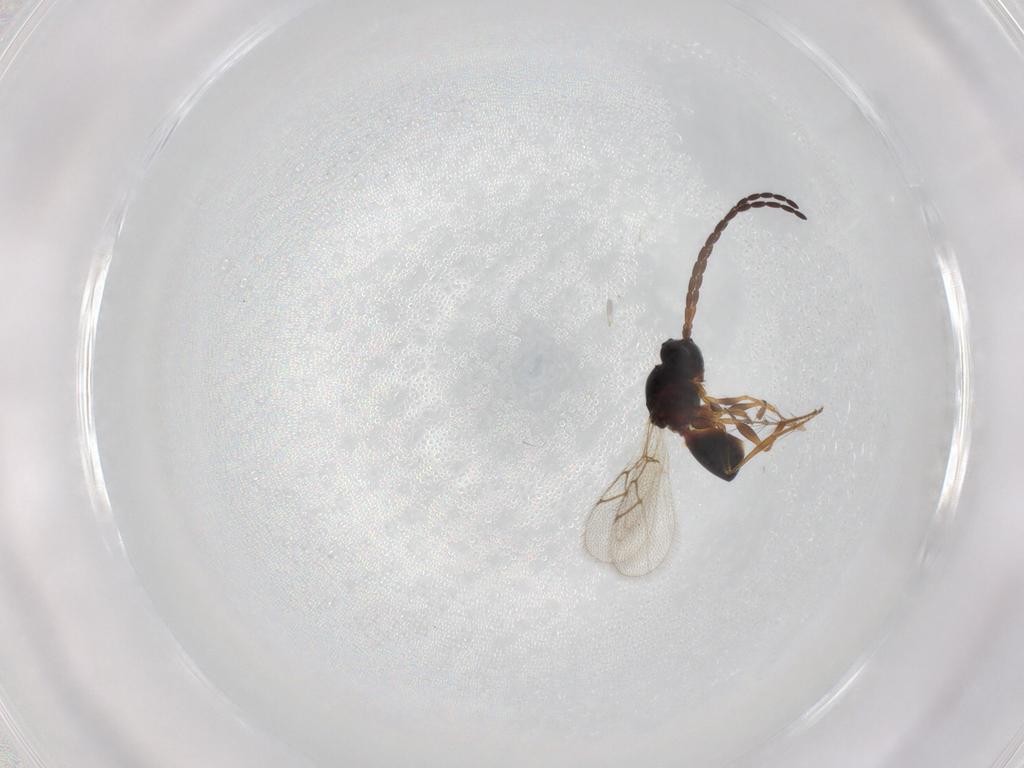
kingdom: Animalia
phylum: Arthropoda
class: Insecta
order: Hymenoptera
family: Figitidae
